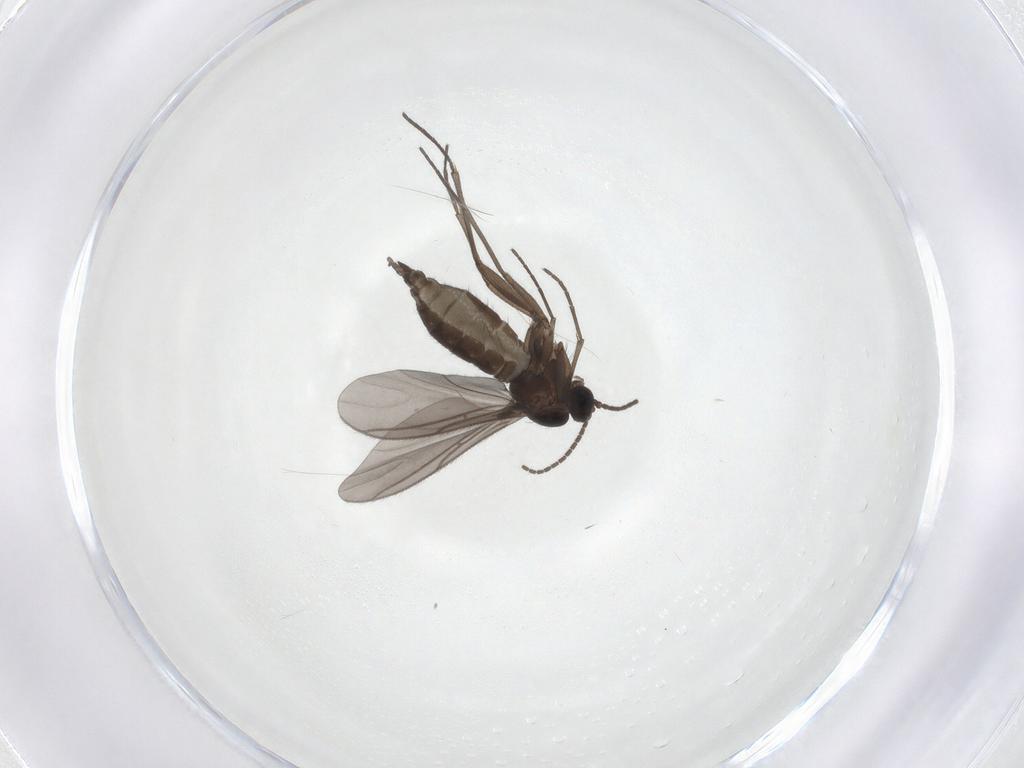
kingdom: Animalia
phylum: Arthropoda
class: Insecta
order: Diptera
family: Sciaridae
